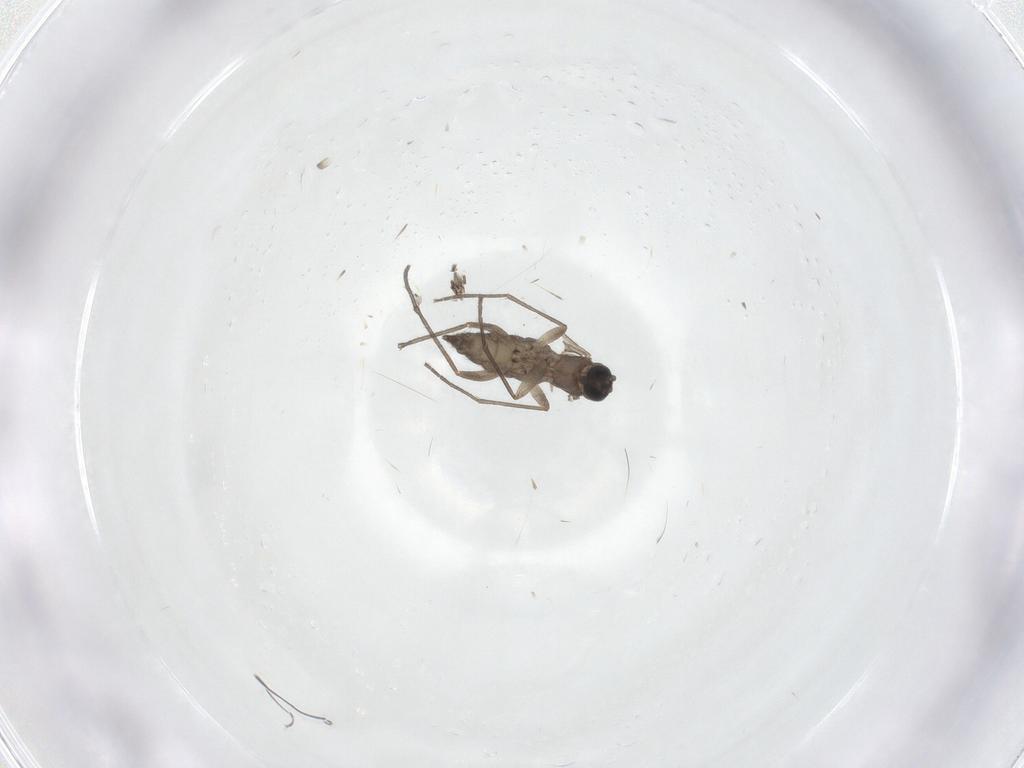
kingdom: Animalia
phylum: Arthropoda
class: Insecta
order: Diptera
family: Sciaridae
